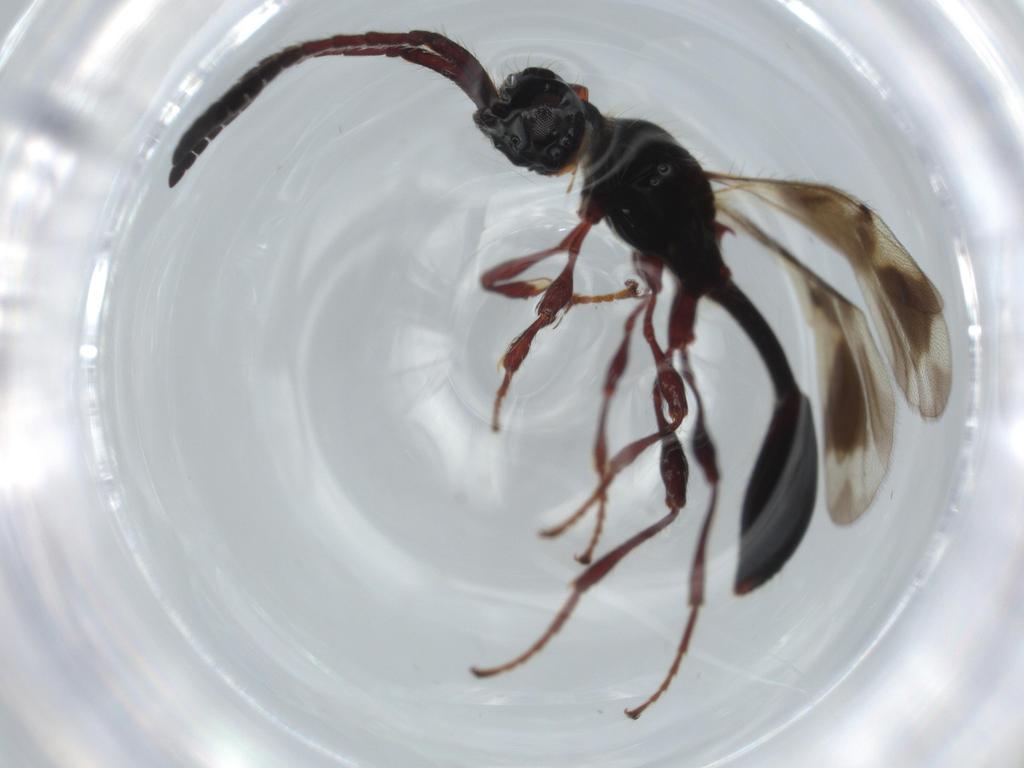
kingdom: Animalia
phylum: Arthropoda
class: Insecta
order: Hymenoptera
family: Diapriidae
